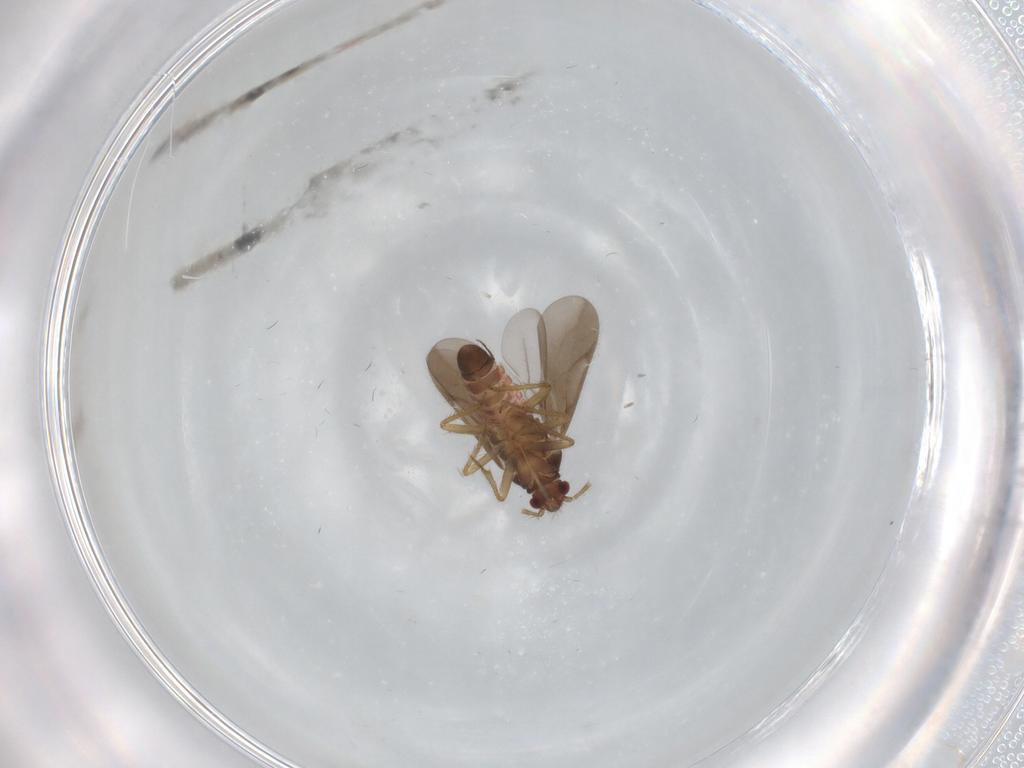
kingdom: Animalia
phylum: Arthropoda
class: Insecta
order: Hemiptera
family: Ceratocombidae
